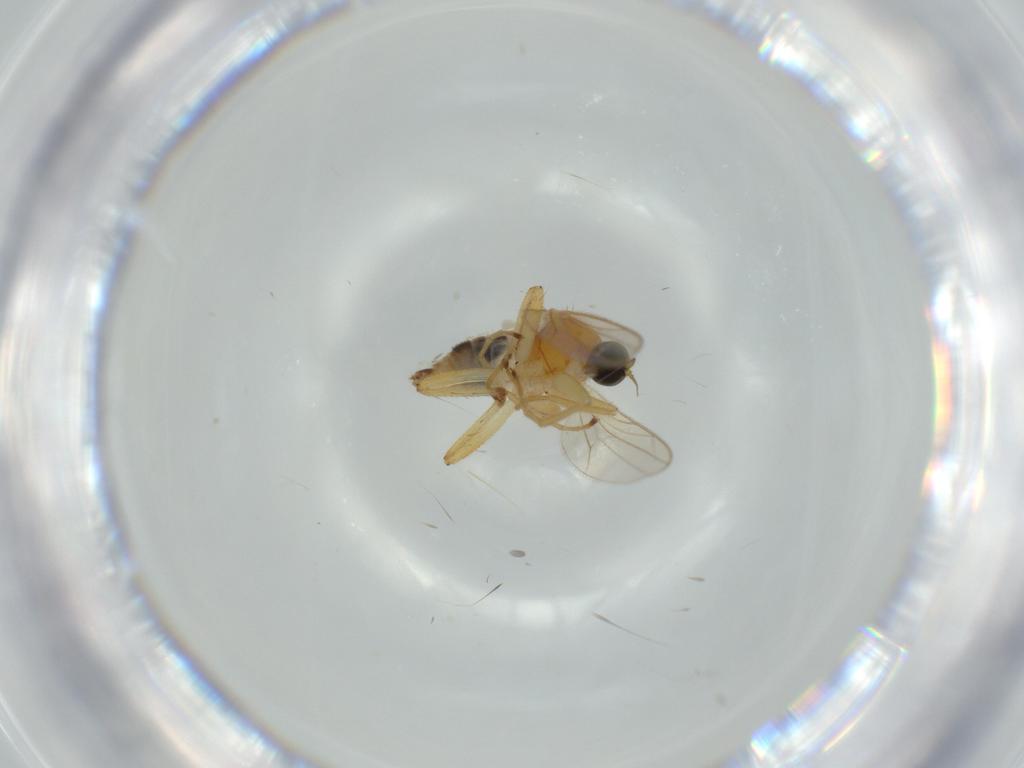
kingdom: Animalia
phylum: Arthropoda
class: Insecta
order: Diptera
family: Hybotidae
